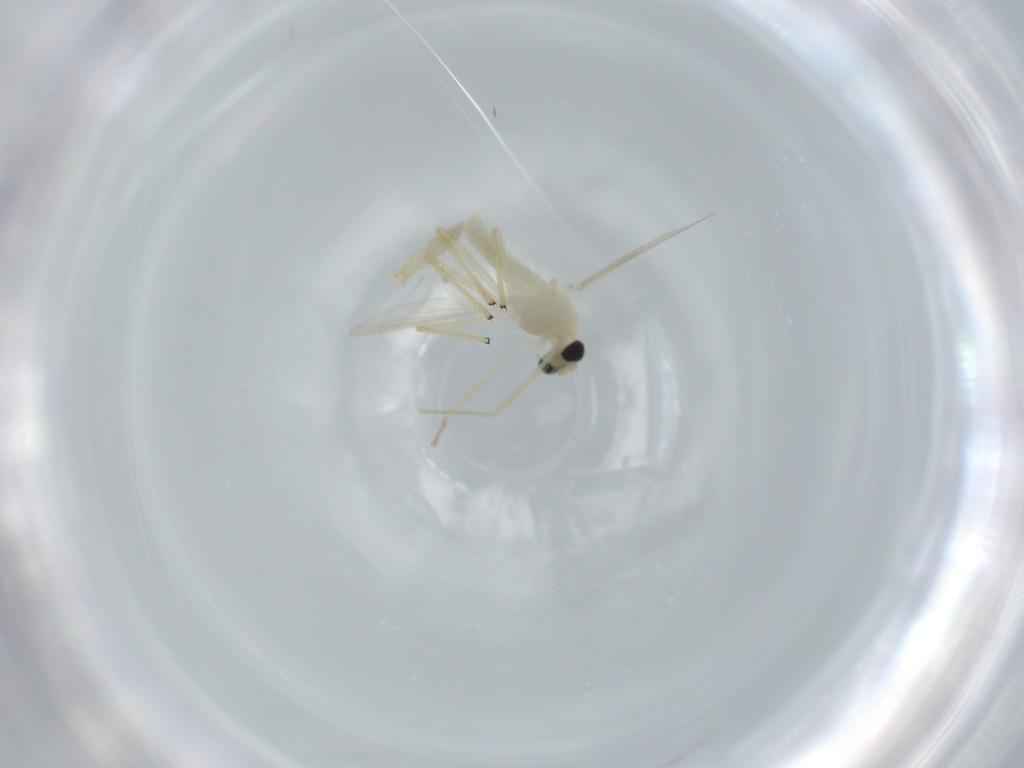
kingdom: Animalia
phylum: Arthropoda
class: Insecta
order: Diptera
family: Chironomidae
